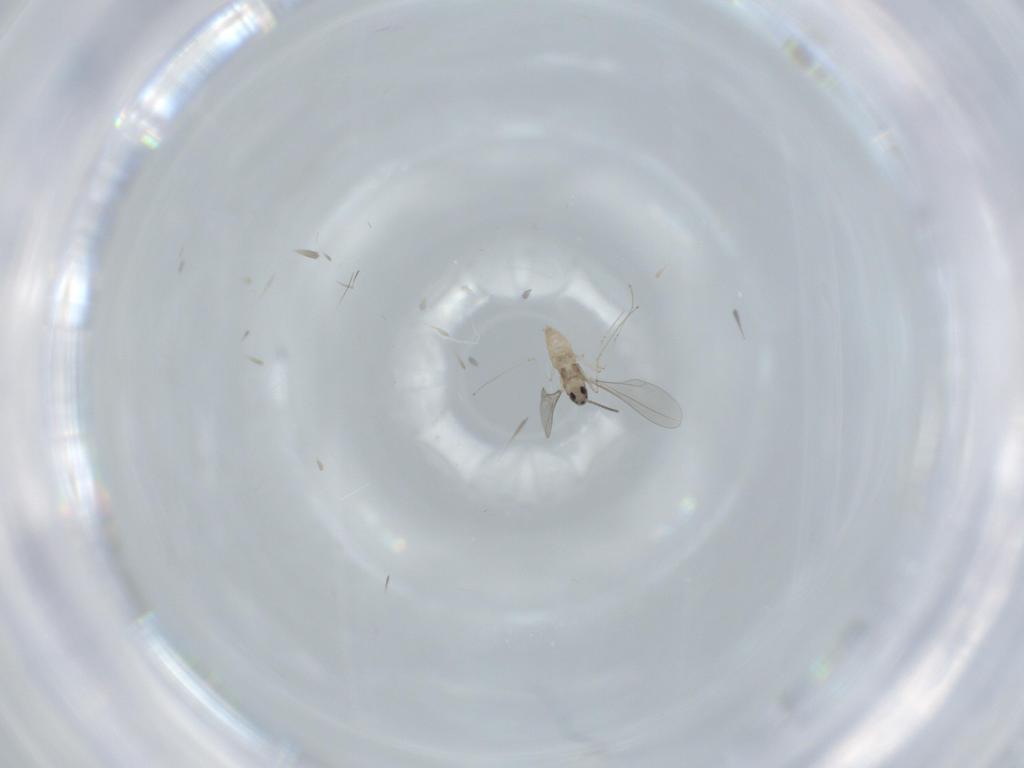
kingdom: Animalia
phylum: Arthropoda
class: Insecta
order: Diptera
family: Cecidomyiidae
